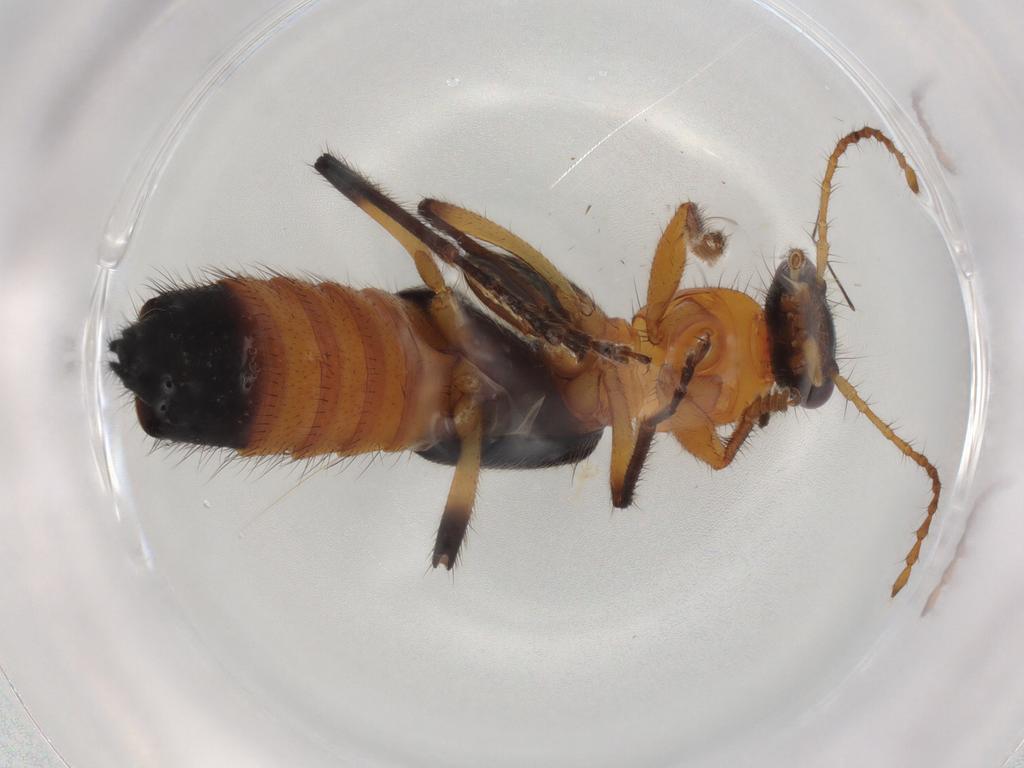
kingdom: Animalia
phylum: Arthropoda
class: Insecta
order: Coleoptera
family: Staphylinidae
